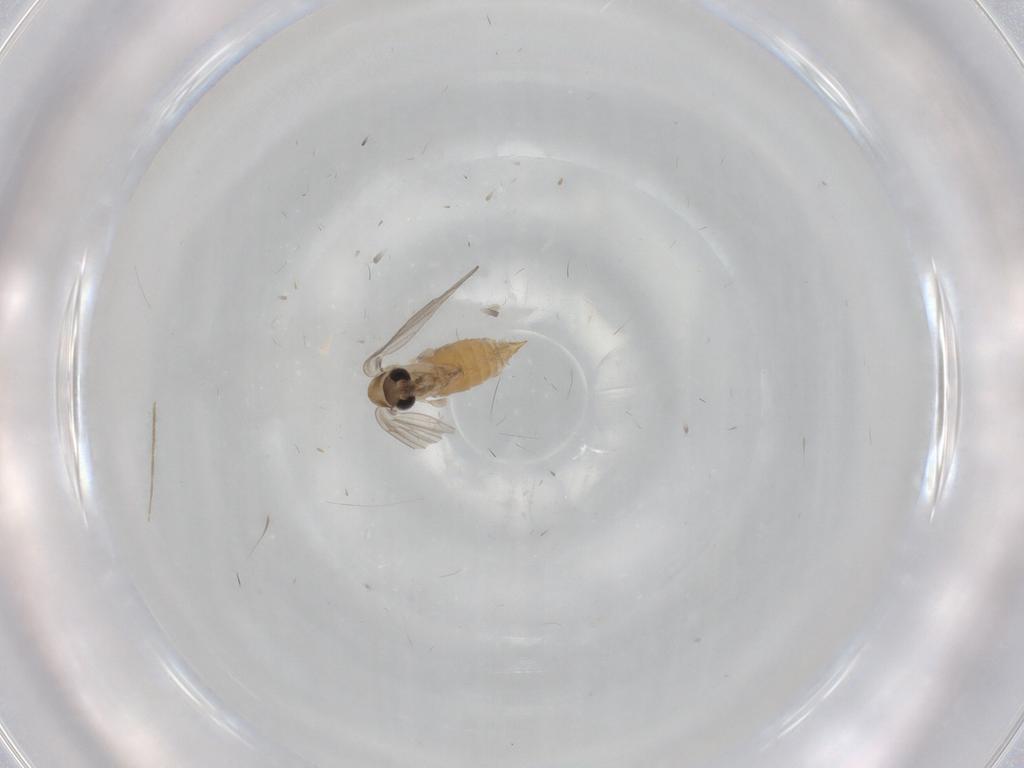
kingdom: Animalia
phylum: Arthropoda
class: Insecta
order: Diptera
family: Psychodidae
